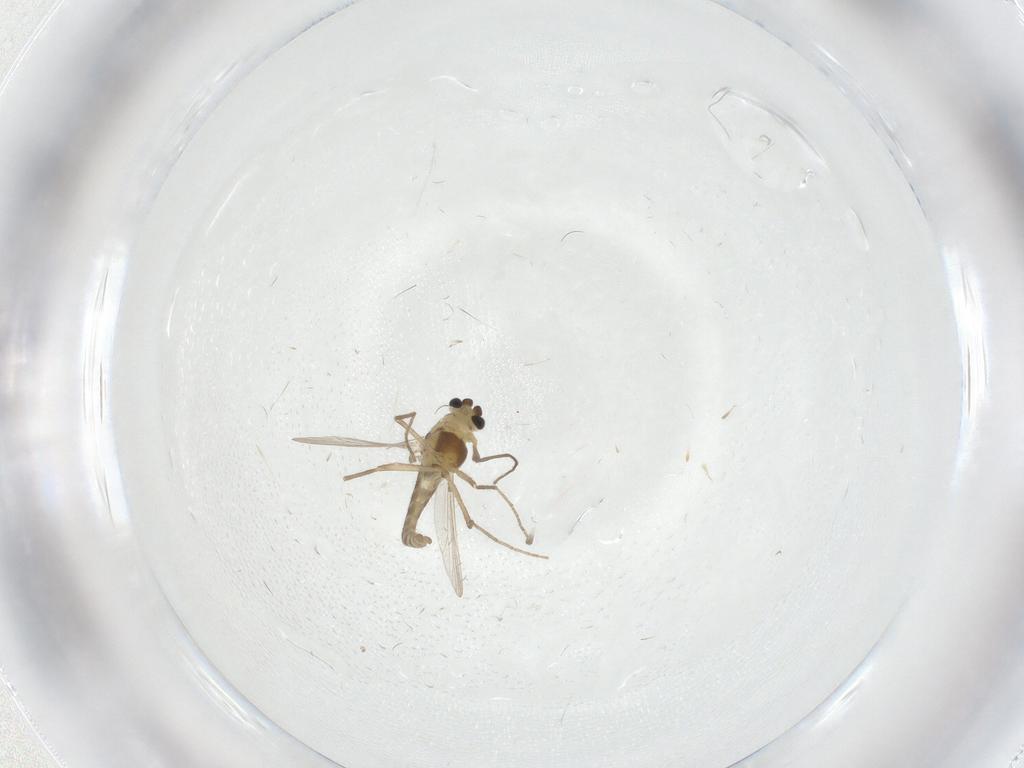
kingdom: Animalia
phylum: Arthropoda
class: Insecta
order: Diptera
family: Chironomidae
